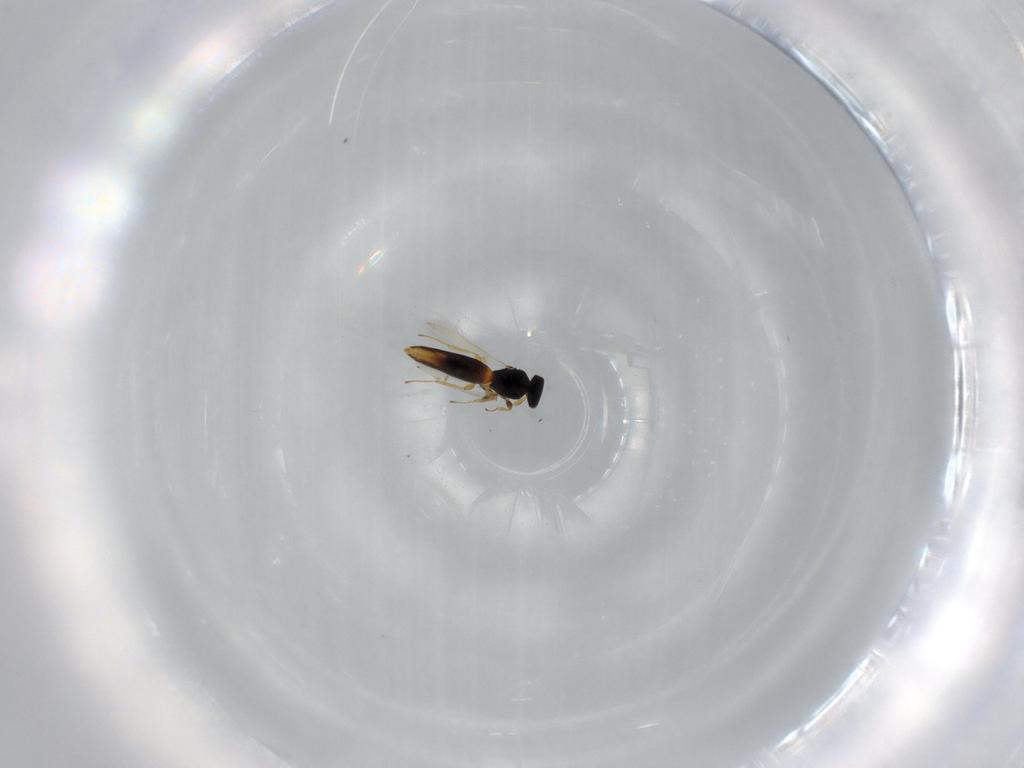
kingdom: Animalia
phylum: Arthropoda
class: Insecta
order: Hymenoptera
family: Scelionidae
